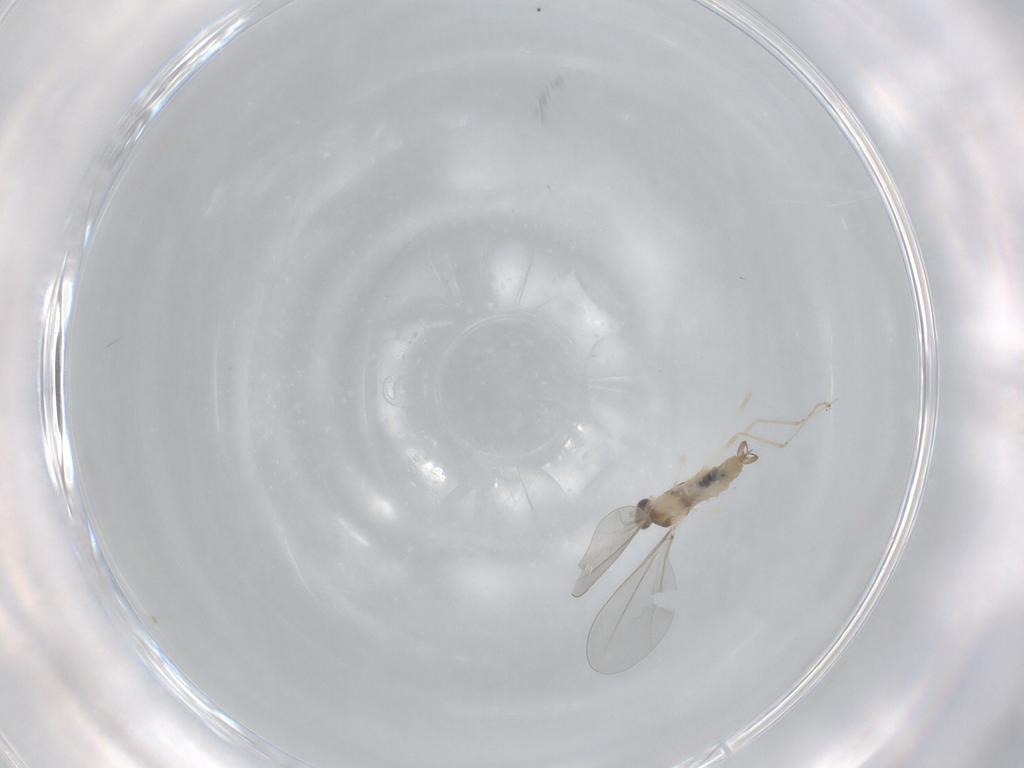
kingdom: Animalia
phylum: Arthropoda
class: Insecta
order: Diptera
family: Cecidomyiidae
